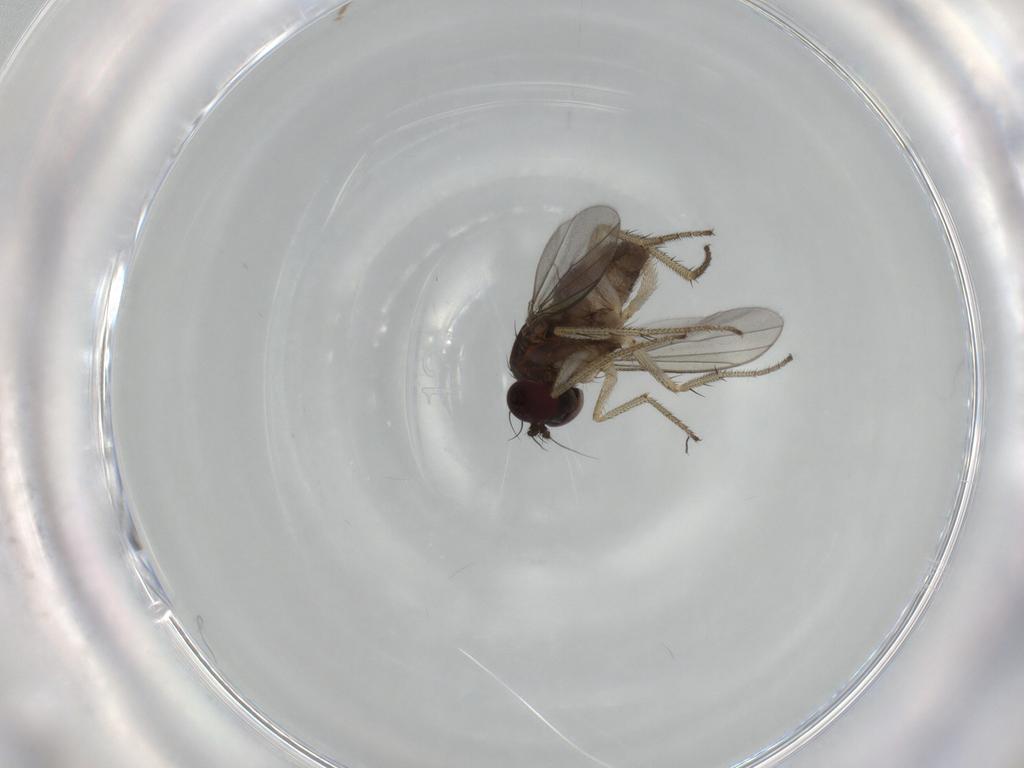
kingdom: Animalia
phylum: Arthropoda
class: Insecta
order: Diptera
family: Dolichopodidae
